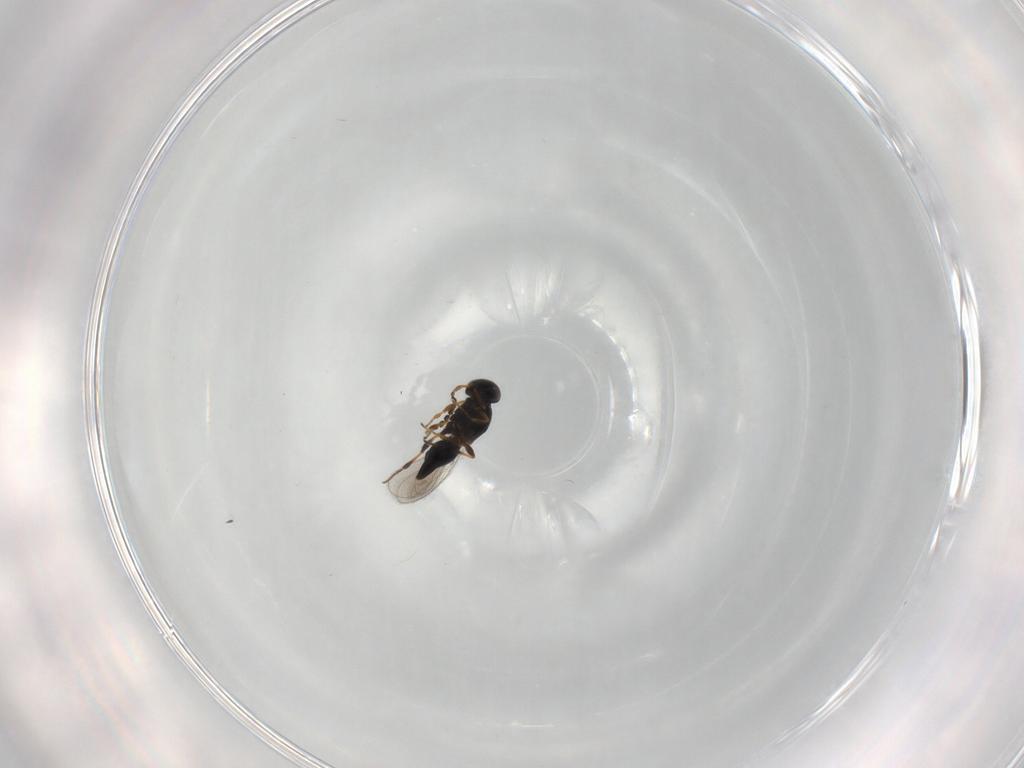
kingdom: Animalia
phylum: Arthropoda
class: Insecta
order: Hymenoptera
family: Platygastridae
